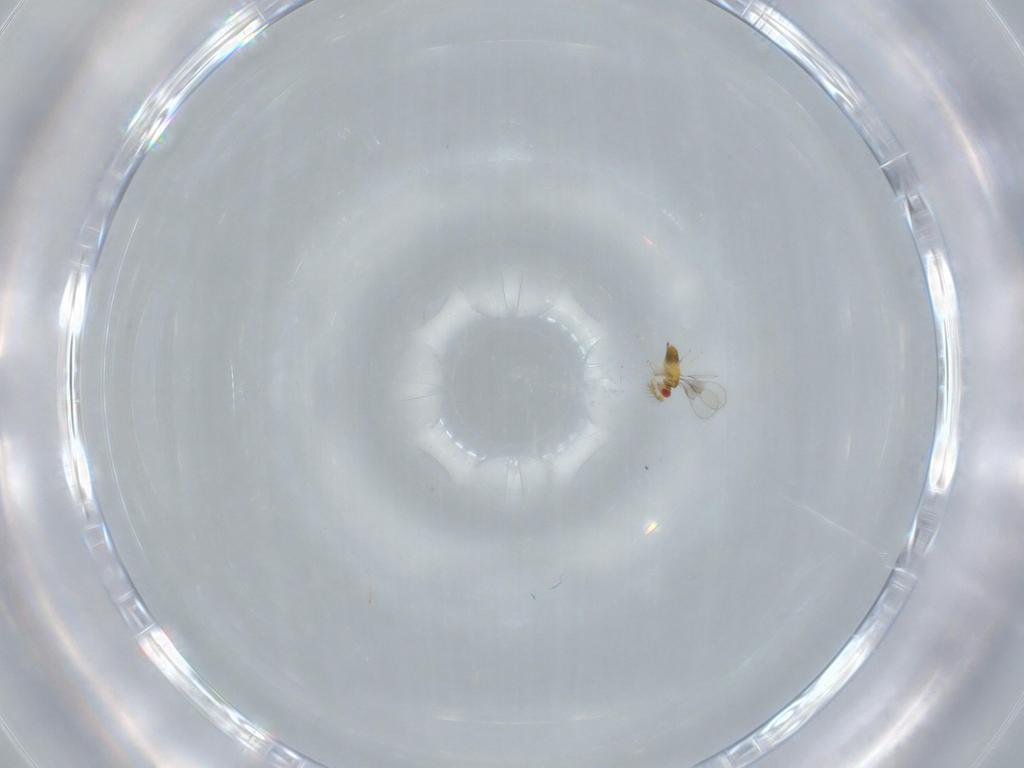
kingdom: Animalia
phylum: Arthropoda
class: Insecta
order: Hymenoptera
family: Trichogrammatidae
